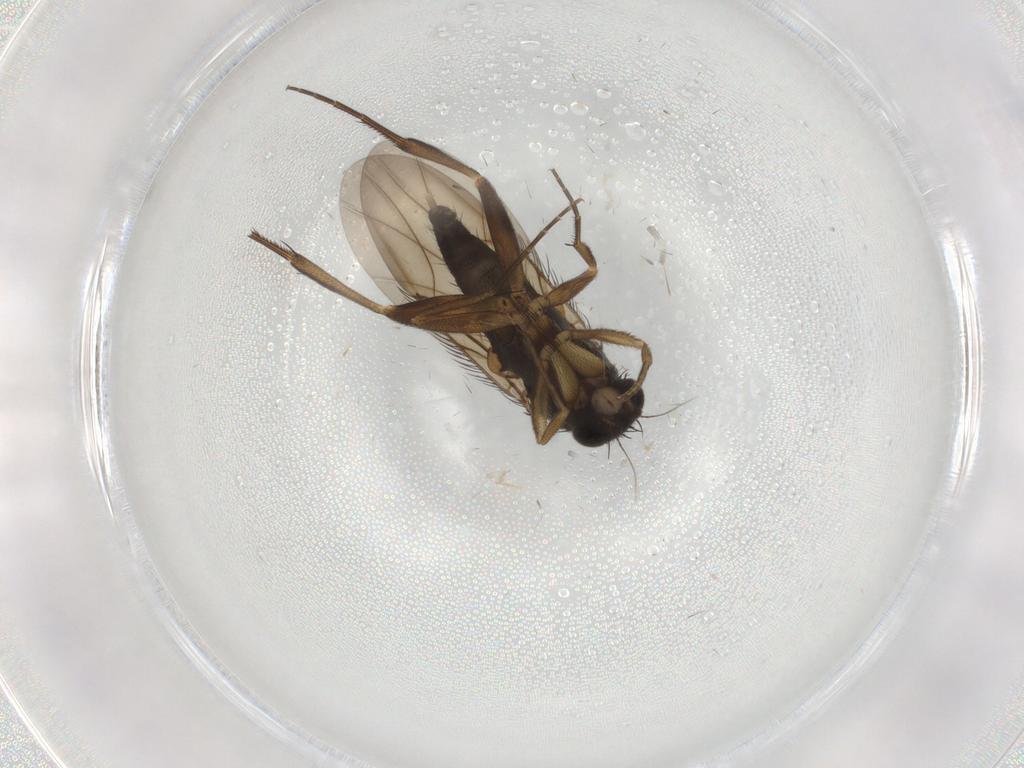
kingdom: Animalia
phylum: Arthropoda
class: Insecta
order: Diptera
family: Phoridae
